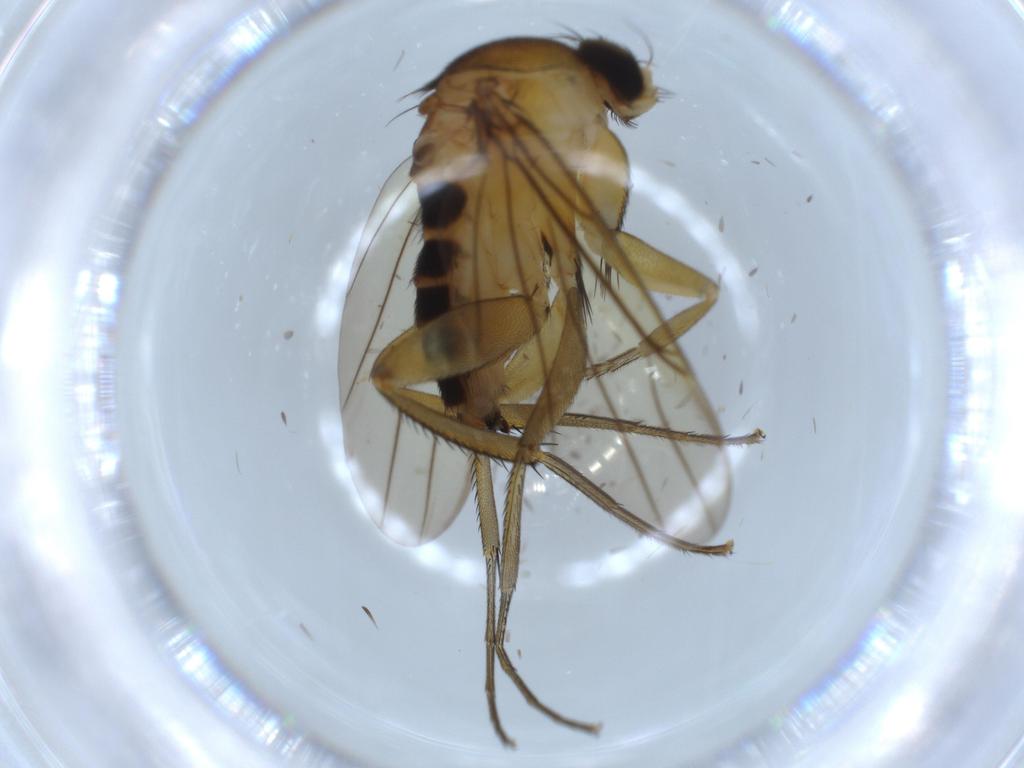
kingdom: Animalia
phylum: Arthropoda
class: Insecta
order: Diptera
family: Cecidomyiidae
